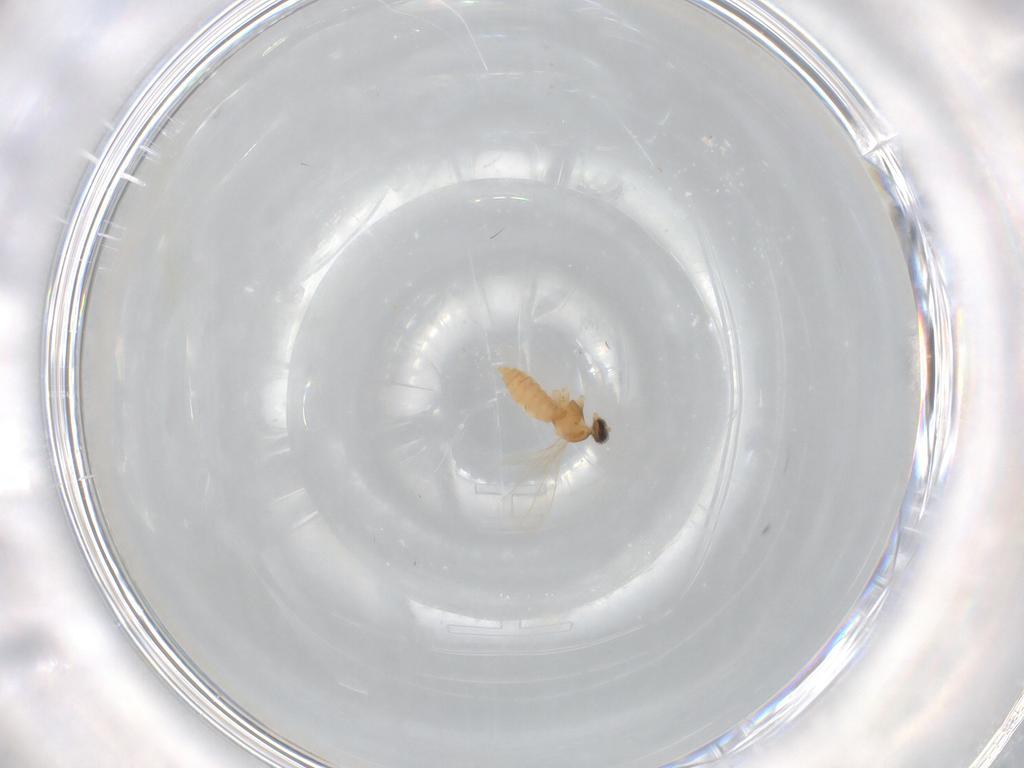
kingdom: Animalia
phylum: Arthropoda
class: Insecta
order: Diptera
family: Cecidomyiidae
